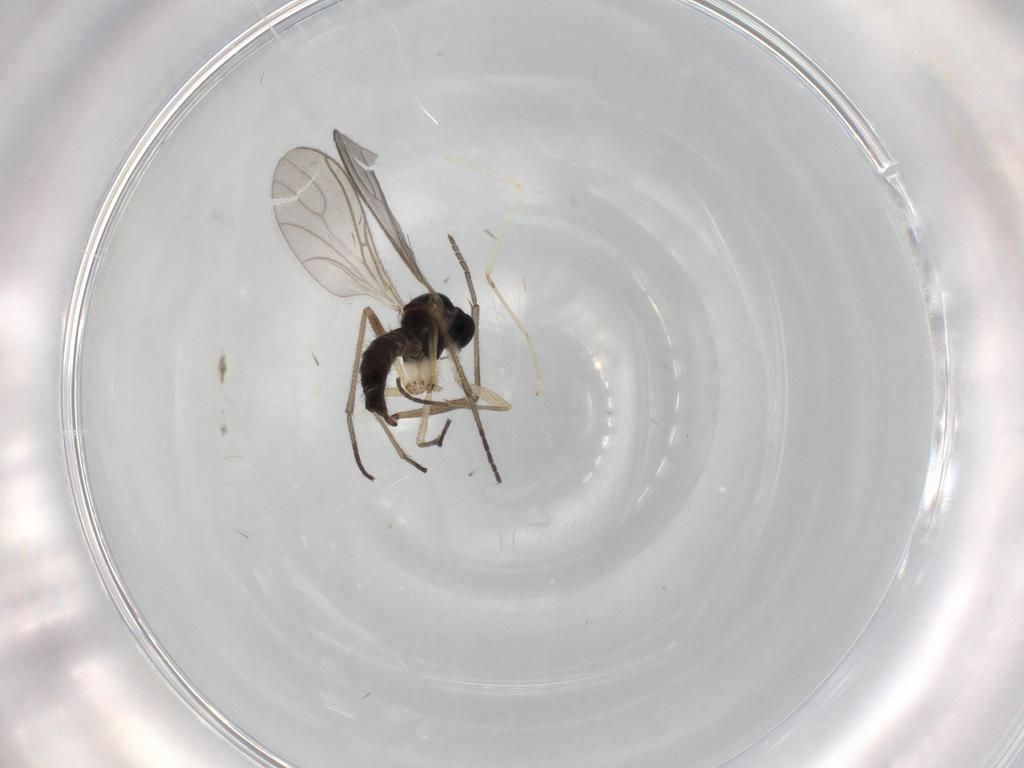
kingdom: Animalia
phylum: Arthropoda
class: Insecta
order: Diptera
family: Sciaridae
